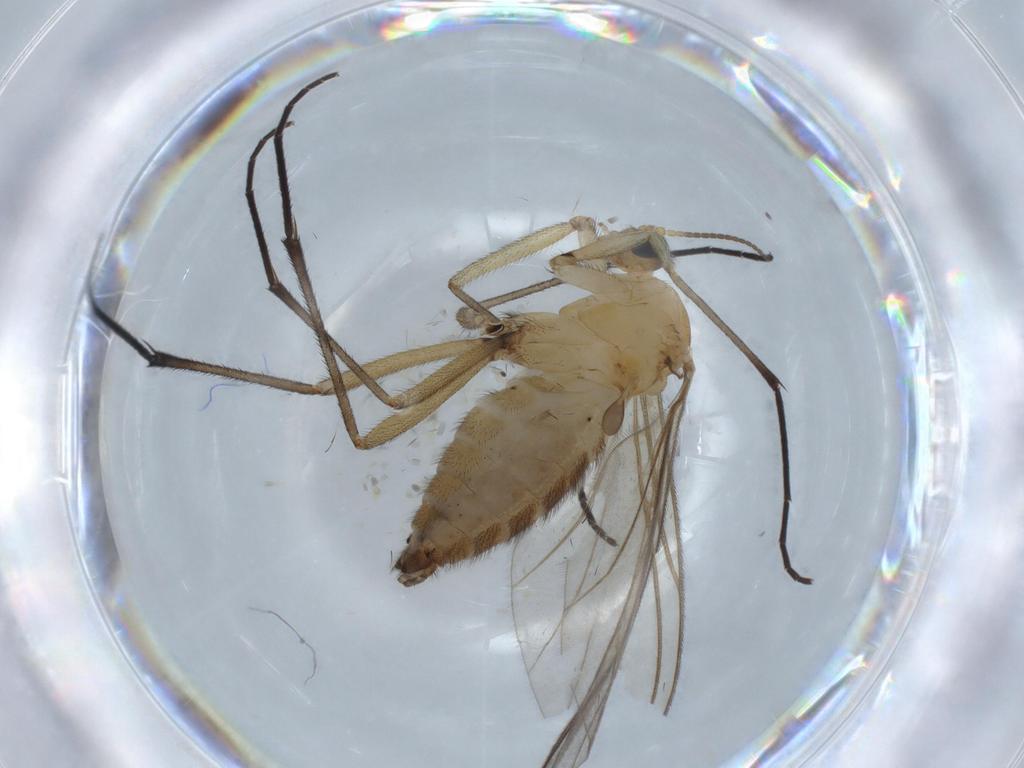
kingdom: Animalia
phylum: Arthropoda
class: Insecta
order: Diptera
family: Sciaridae
